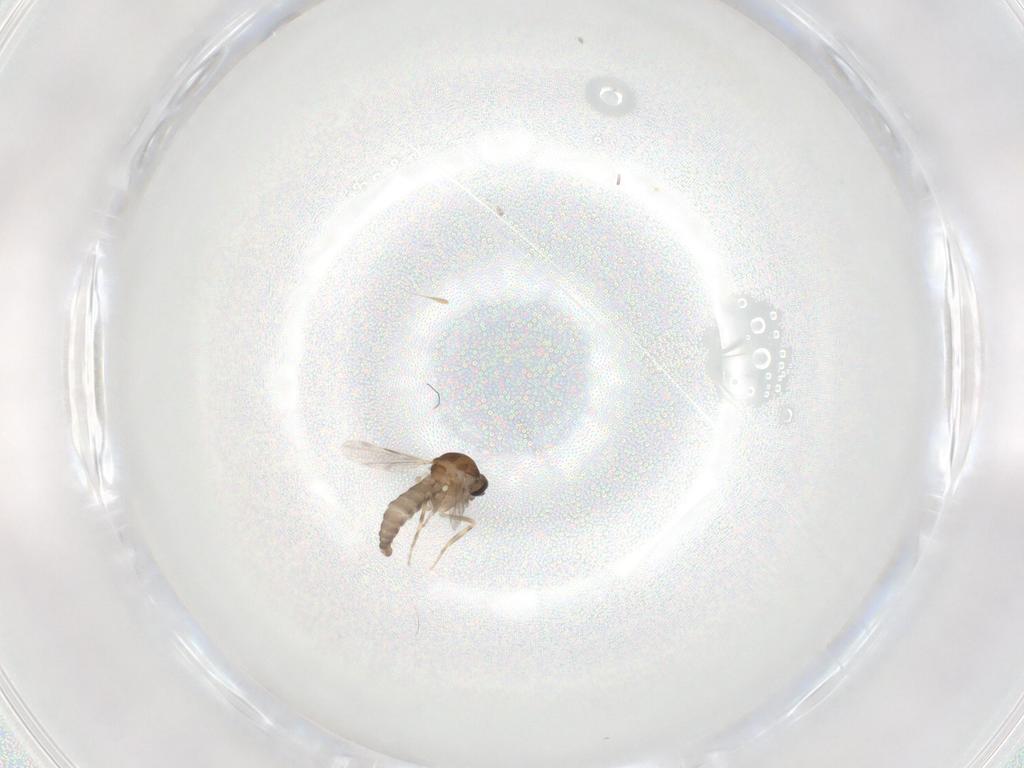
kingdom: Animalia
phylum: Arthropoda
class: Insecta
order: Diptera
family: Ceratopogonidae
